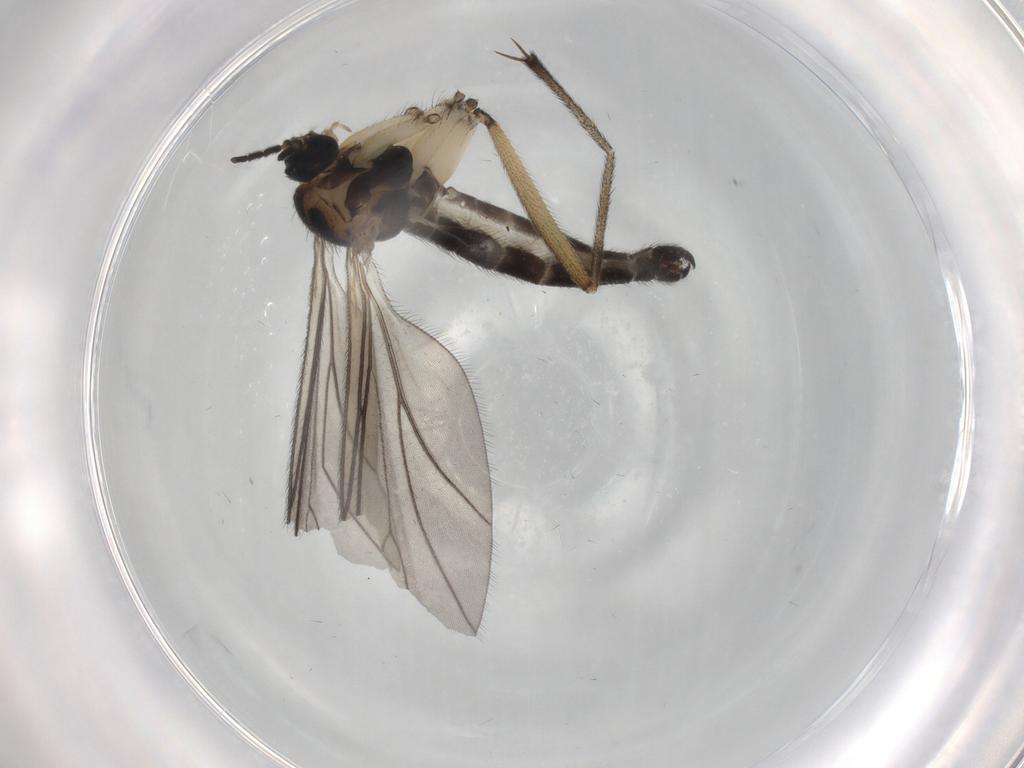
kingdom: Animalia
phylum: Arthropoda
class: Insecta
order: Diptera
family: Sciaridae
